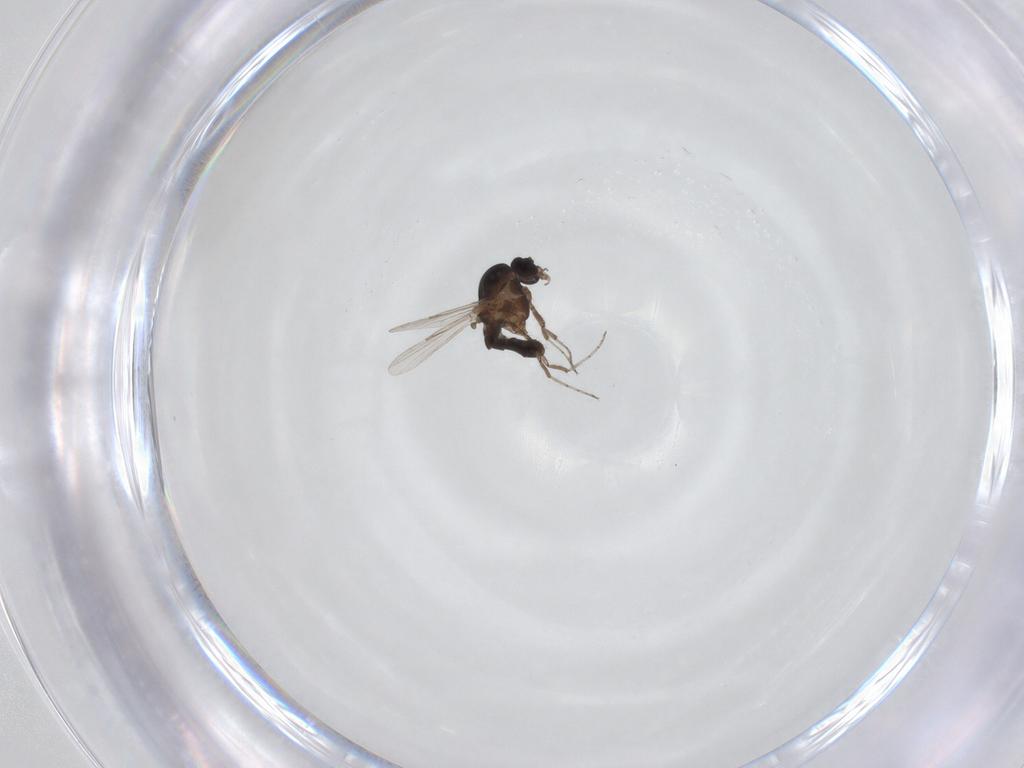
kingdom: Animalia
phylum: Arthropoda
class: Insecta
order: Diptera
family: Ceratopogonidae
